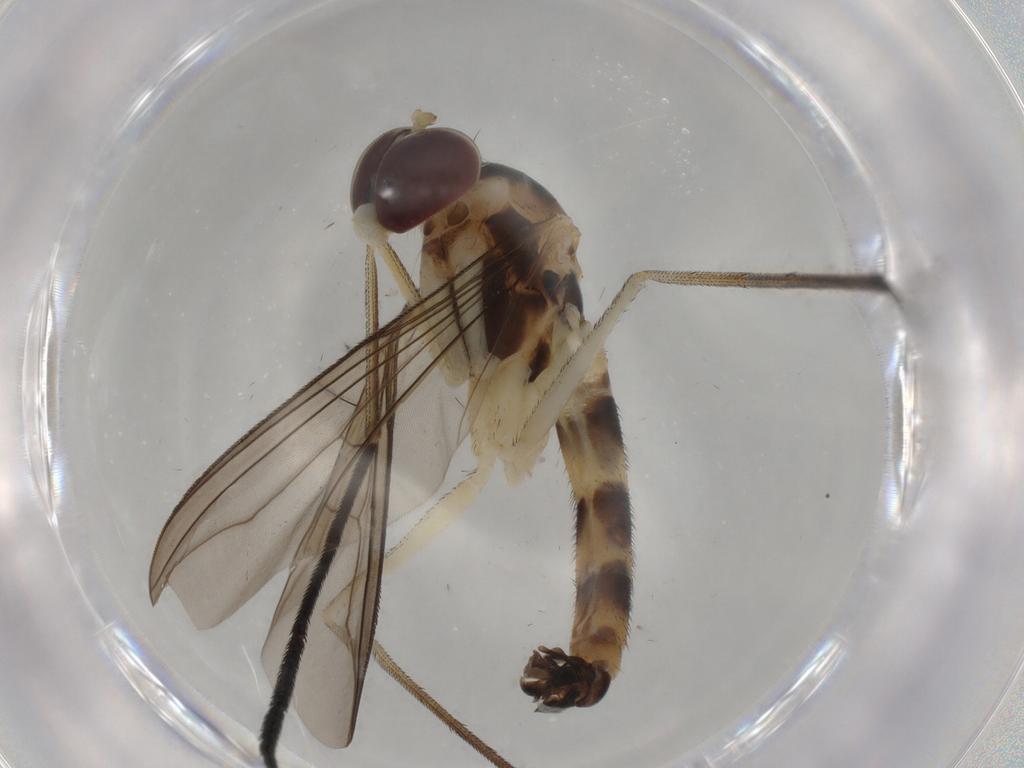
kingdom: Animalia
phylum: Arthropoda
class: Insecta
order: Diptera
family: Muscidae
